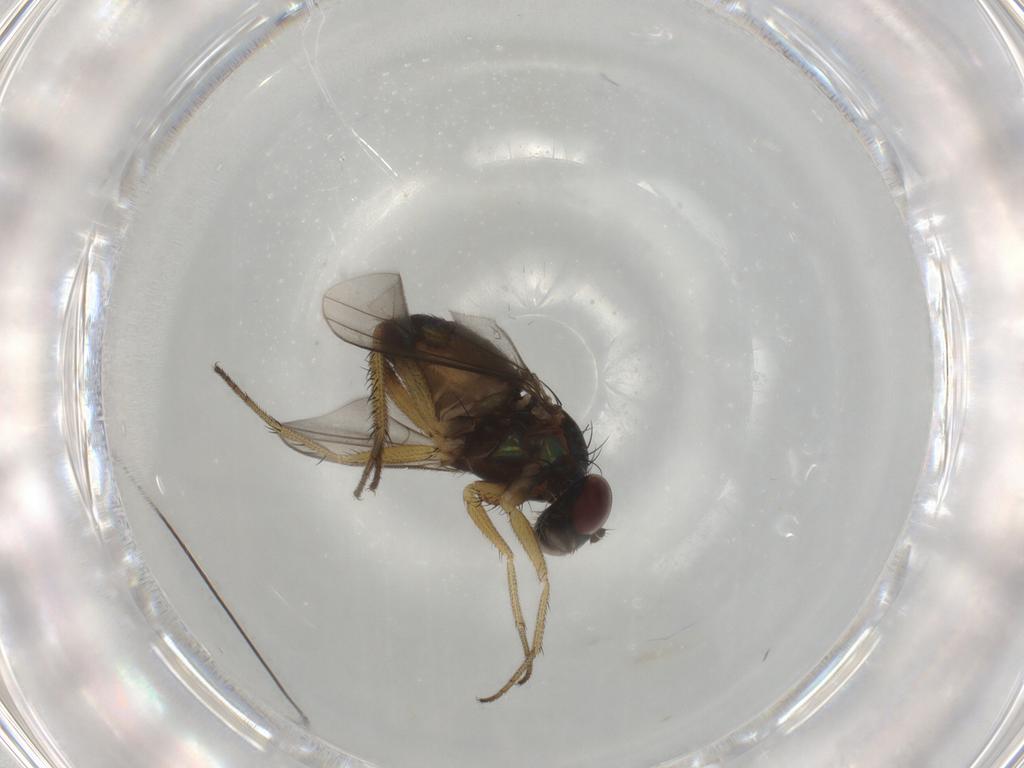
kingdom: Animalia
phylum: Arthropoda
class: Insecta
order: Diptera
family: Dolichopodidae
